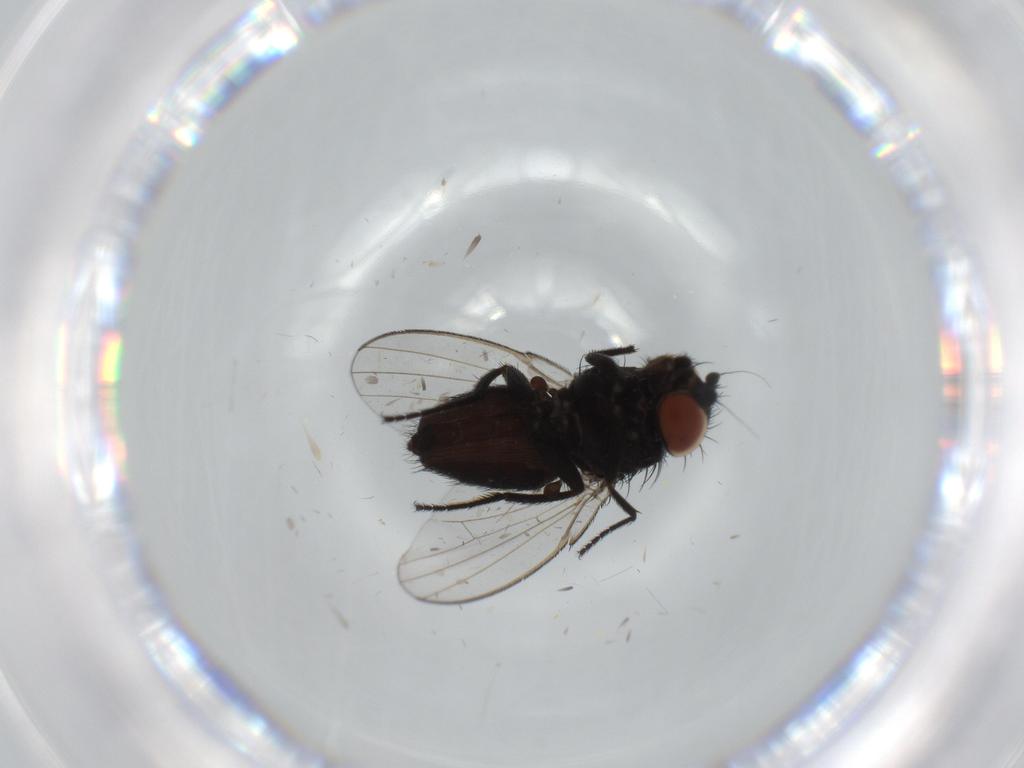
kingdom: Animalia
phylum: Arthropoda
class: Insecta
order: Diptera
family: Milichiidae
